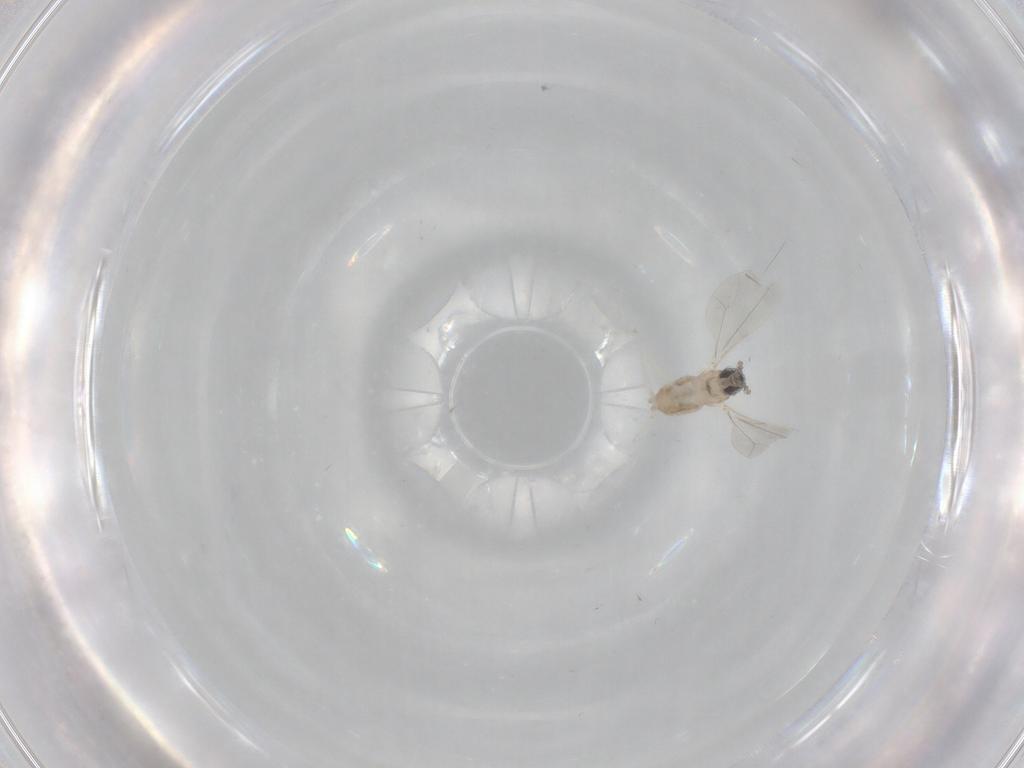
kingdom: Animalia
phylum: Arthropoda
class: Insecta
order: Diptera
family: Cecidomyiidae
